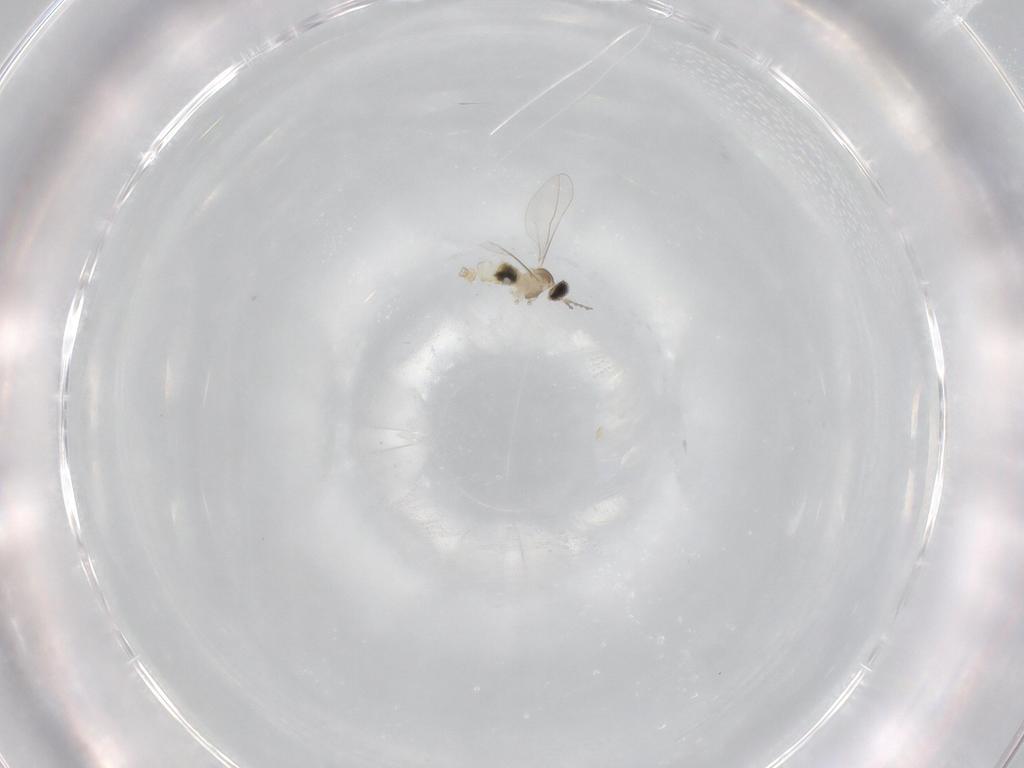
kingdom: Animalia
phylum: Arthropoda
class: Insecta
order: Diptera
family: Cecidomyiidae
